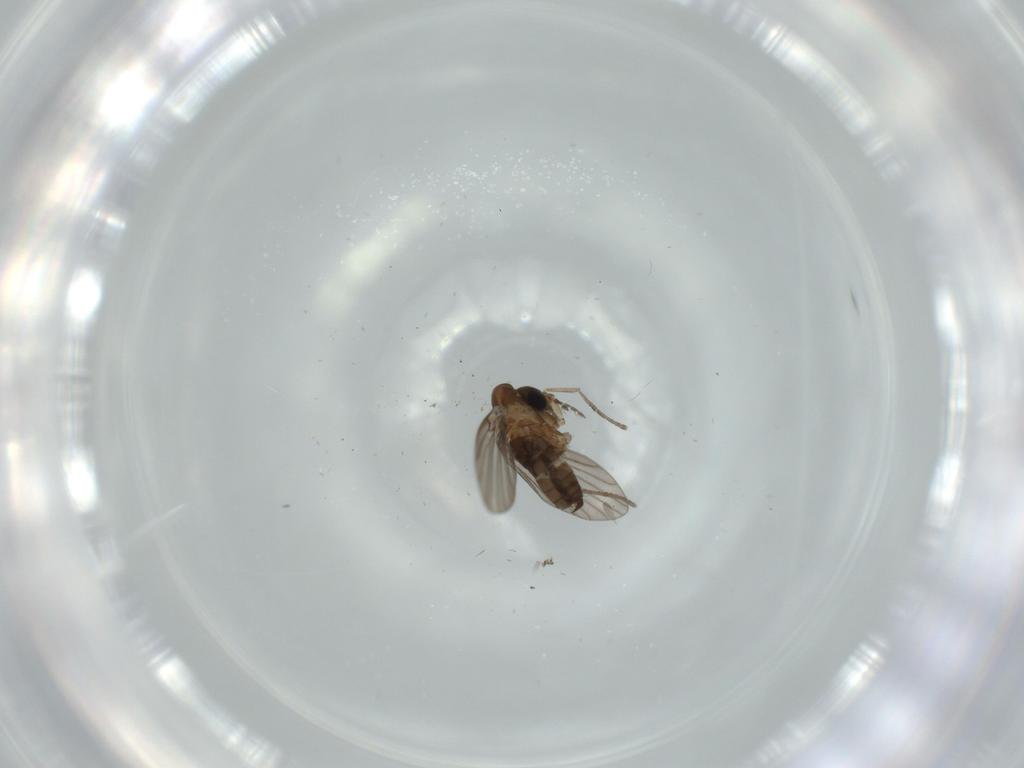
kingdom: Animalia
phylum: Arthropoda
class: Insecta
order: Diptera
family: Psychodidae
